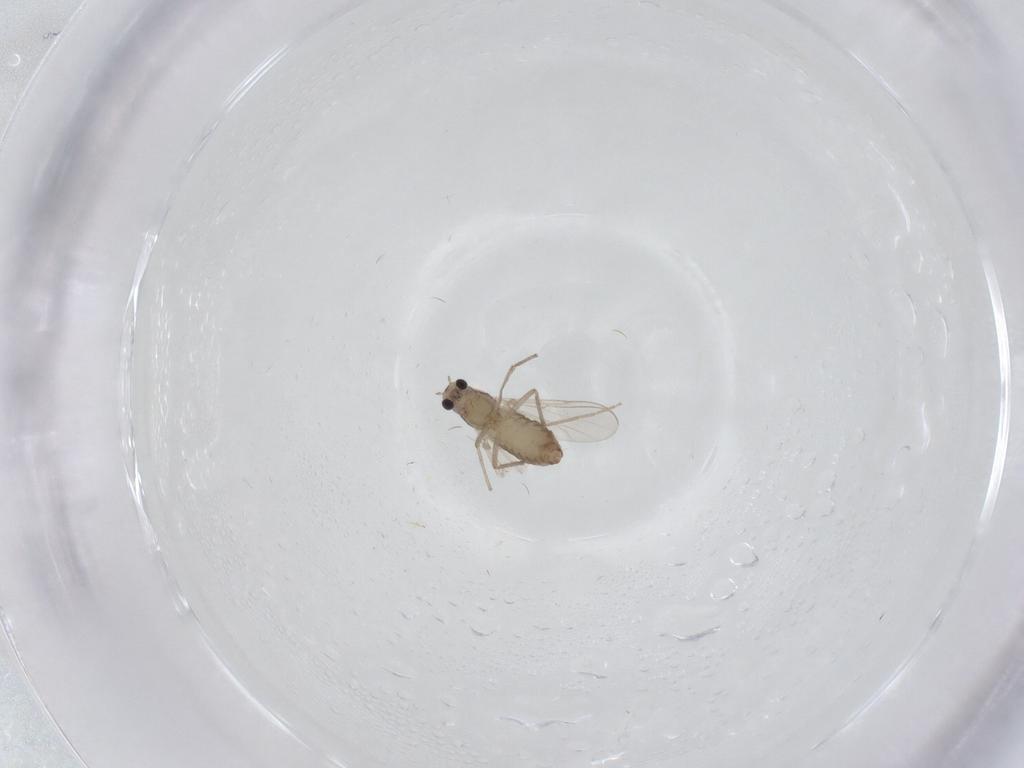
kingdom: Animalia
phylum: Arthropoda
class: Insecta
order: Diptera
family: Chironomidae
